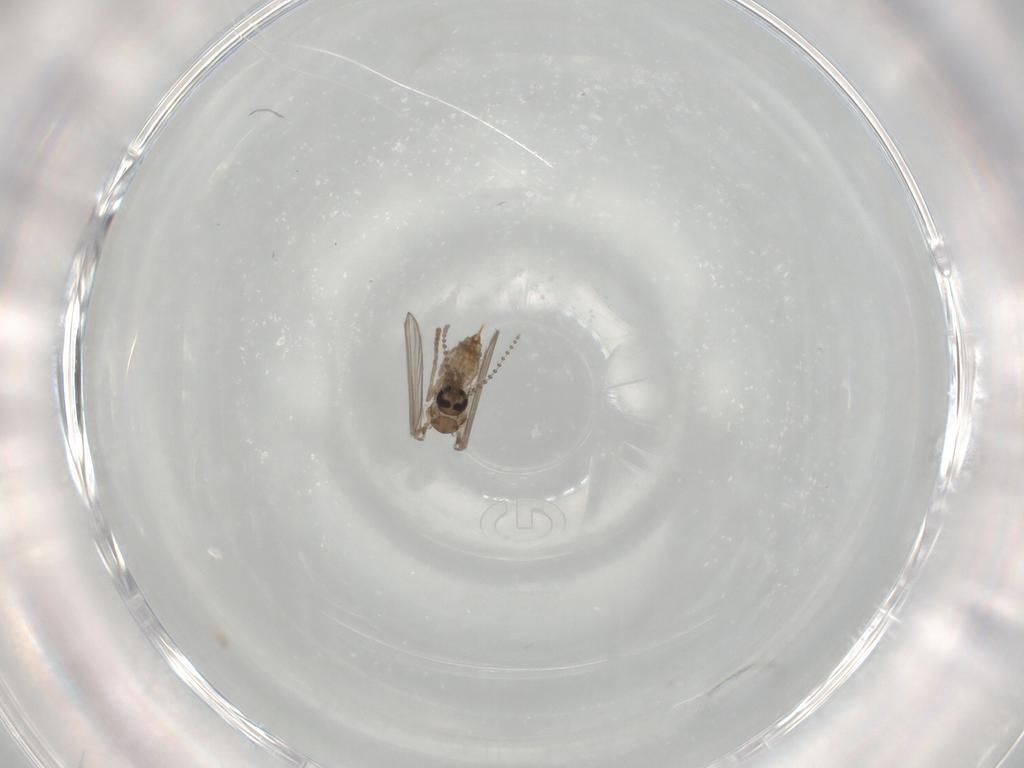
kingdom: Animalia
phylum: Arthropoda
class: Insecta
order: Diptera
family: Psychodidae
